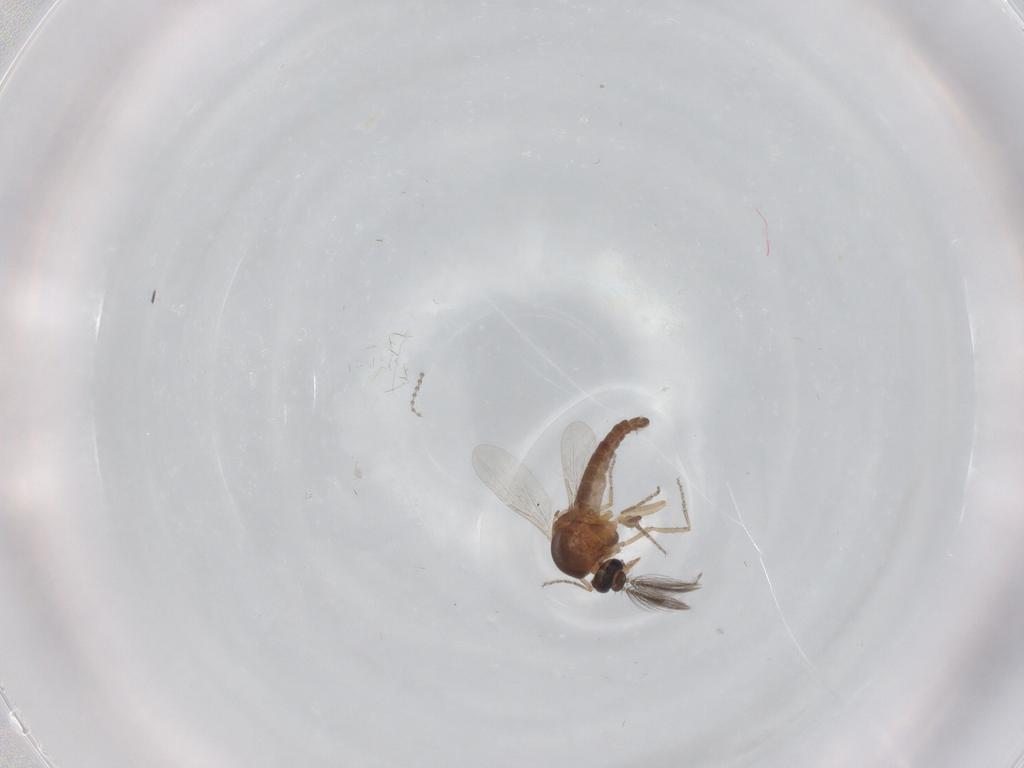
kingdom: Animalia
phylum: Arthropoda
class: Insecta
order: Diptera
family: Ceratopogonidae
